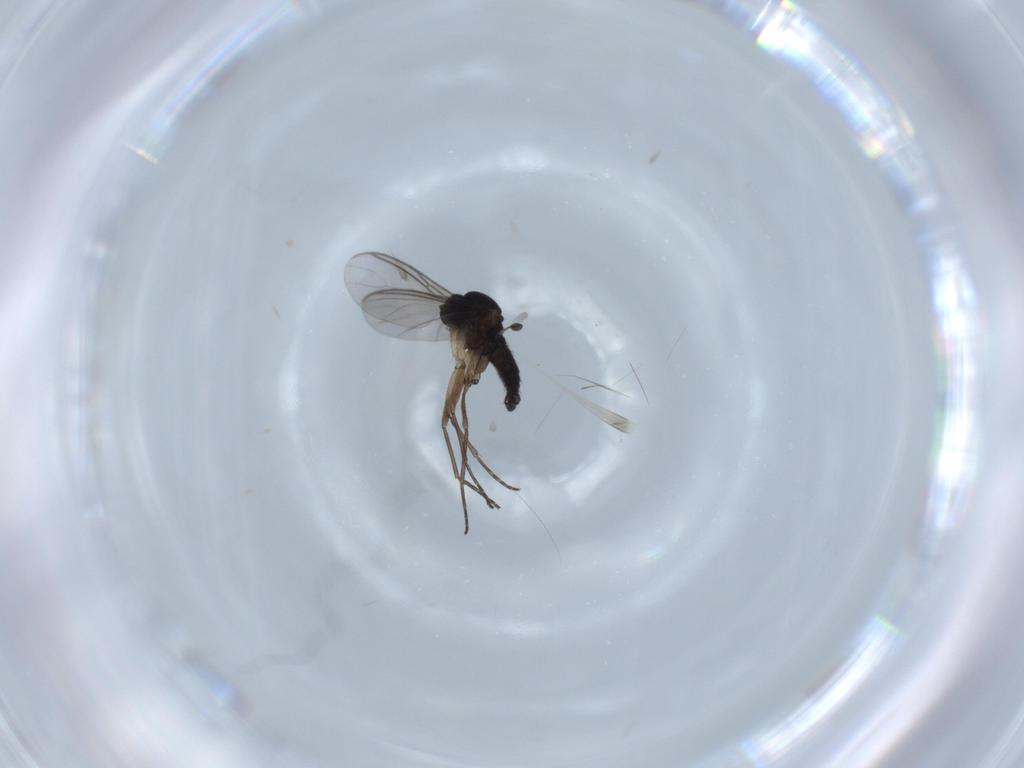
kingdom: Animalia
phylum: Arthropoda
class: Insecta
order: Diptera
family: Sciaridae
